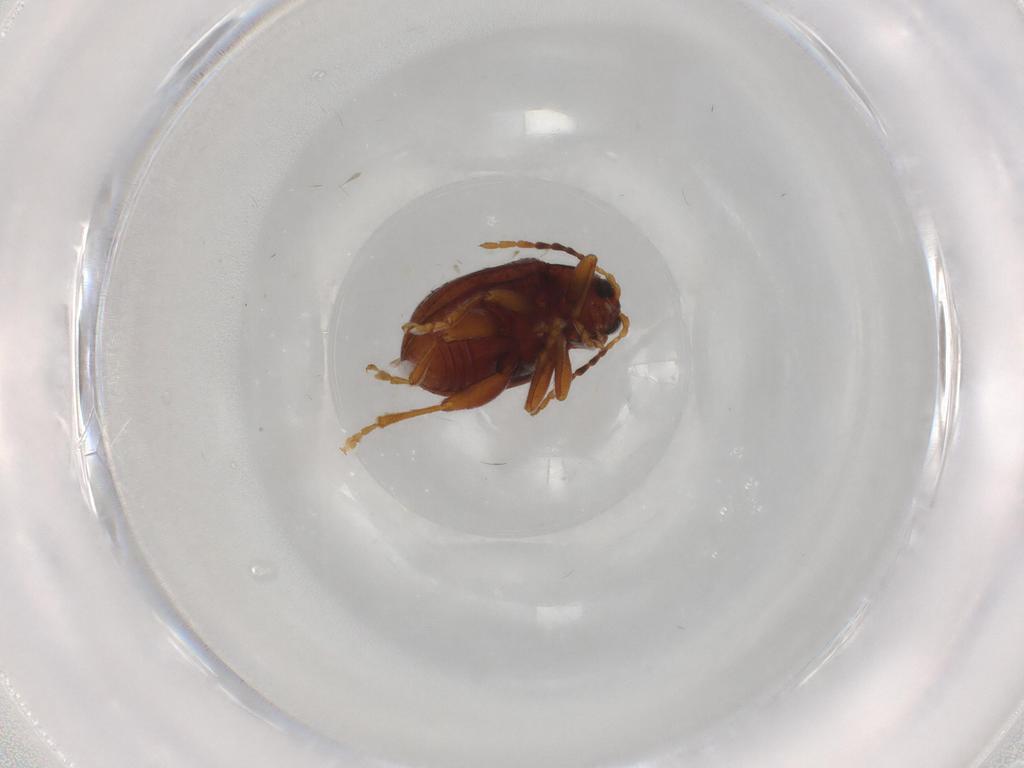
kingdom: Animalia
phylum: Arthropoda
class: Insecta
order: Coleoptera
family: Chrysomelidae
